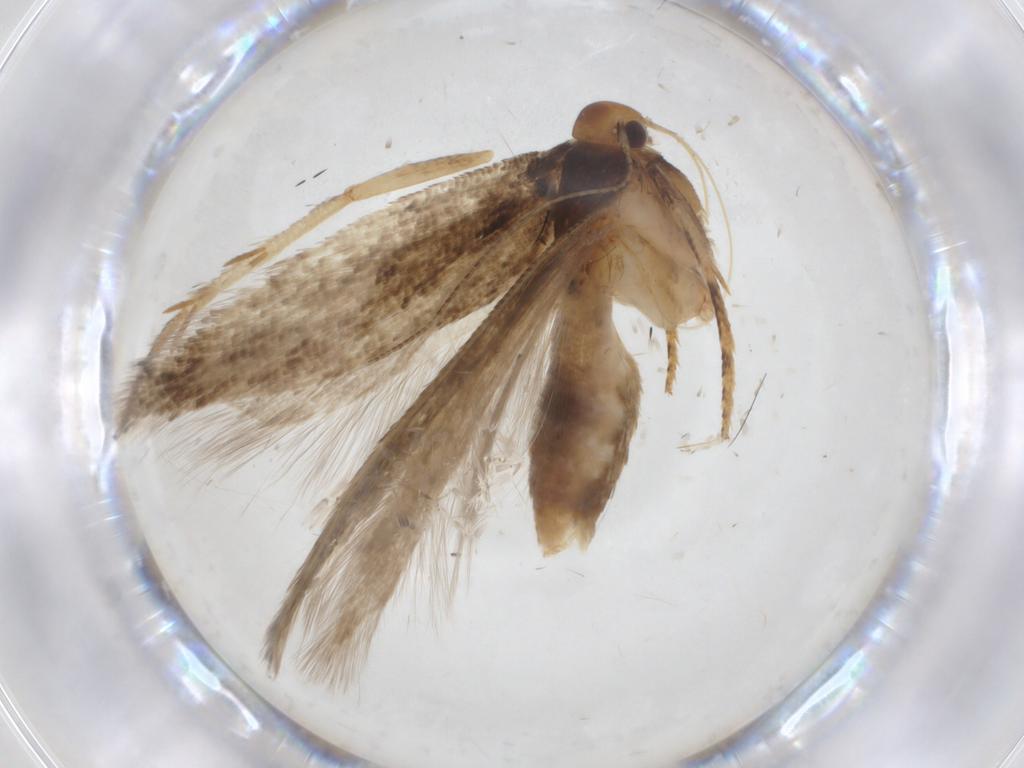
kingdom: Animalia
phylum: Arthropoda
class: Insecta
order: Lepidoptera
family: Gelechiidae
